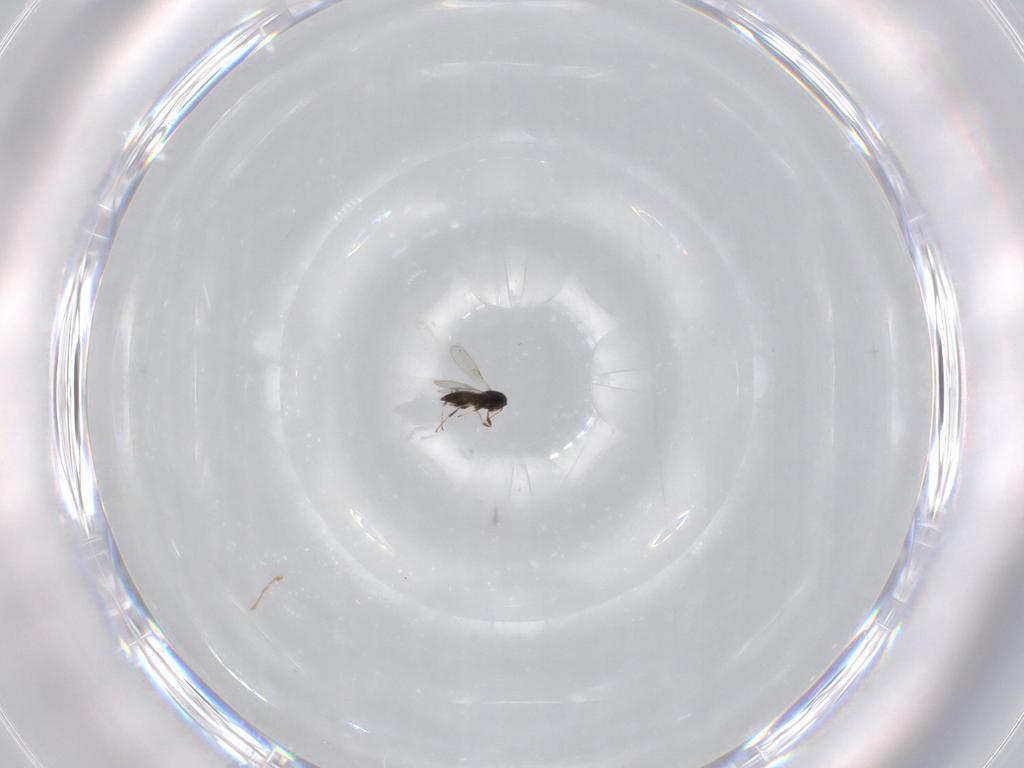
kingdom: Animalia
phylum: Arthropoda
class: Insecta
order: Hymenoptera
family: Scelionidae
